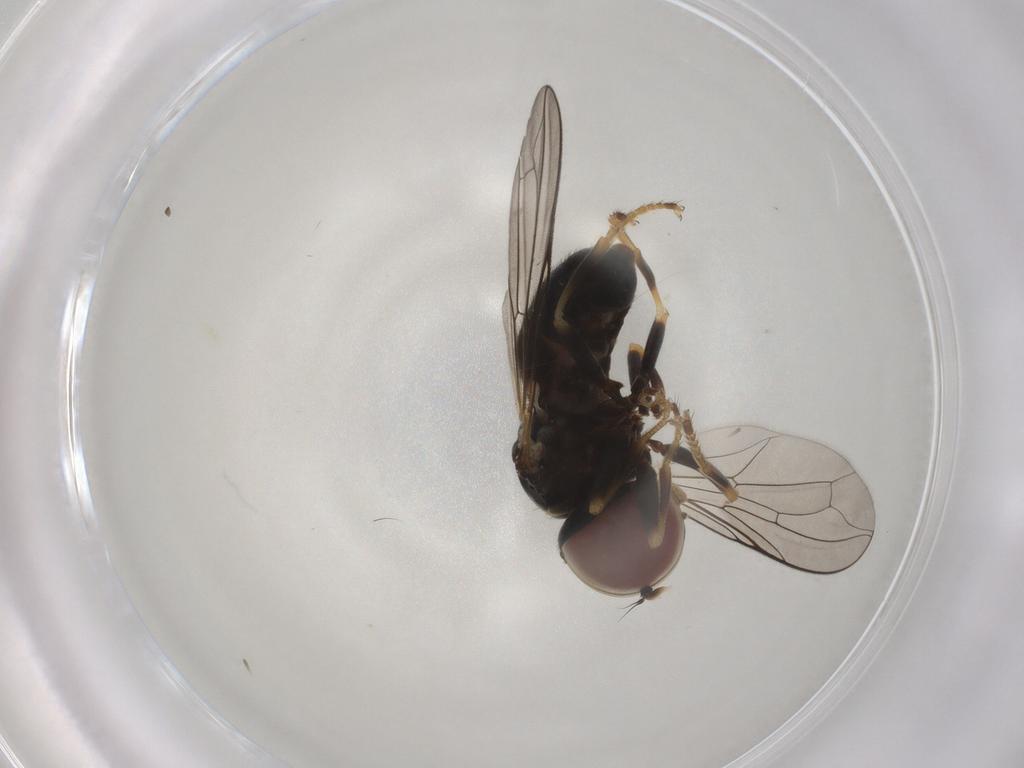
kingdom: Animalia
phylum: Arthropoda
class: Insecta
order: Diptera
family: Pipunculidae
